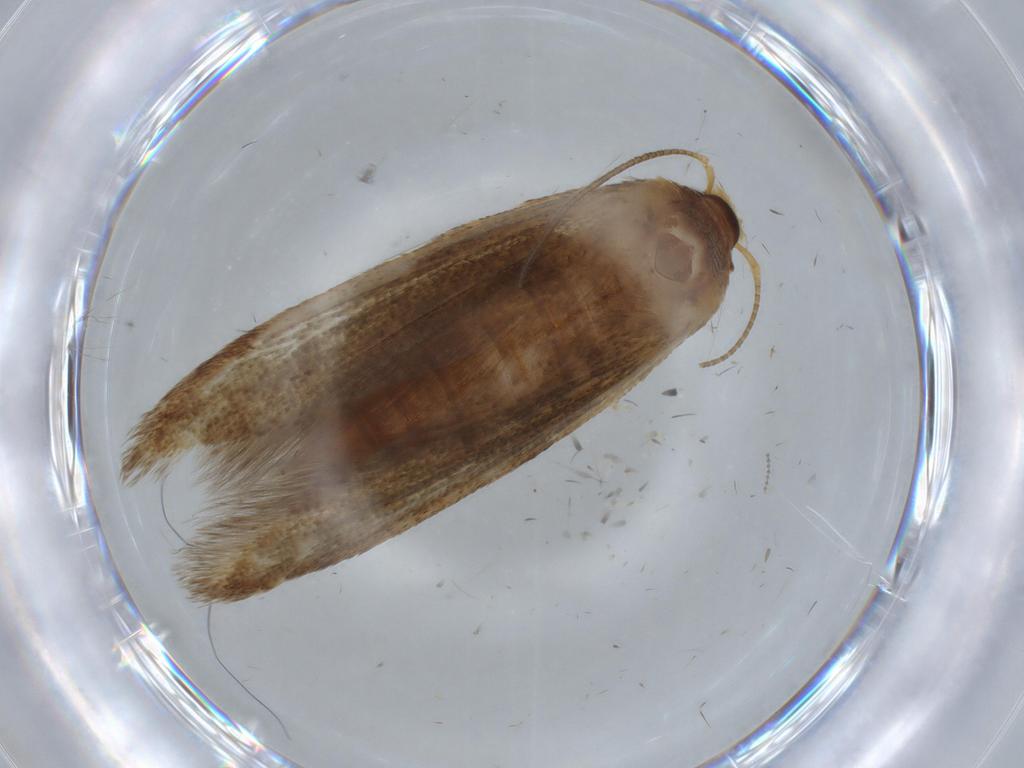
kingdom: Animalia
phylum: Arthropoda
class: Insecta
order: Lepidoptera
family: Blastobasidae
